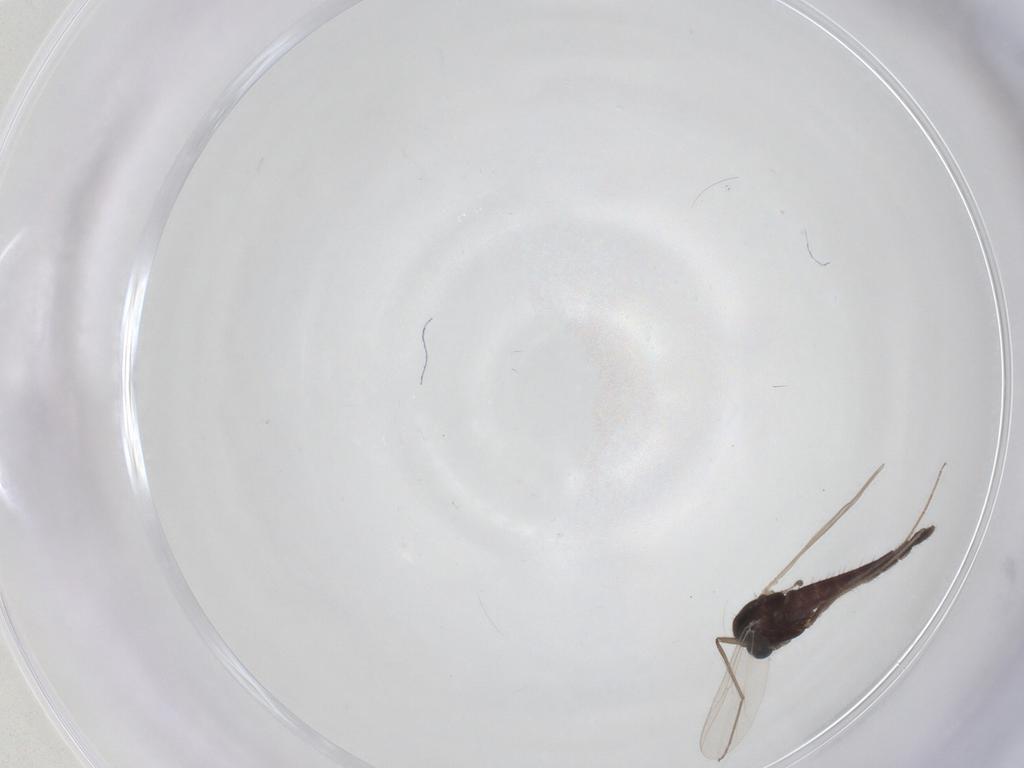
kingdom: Animalia
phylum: Arthropoda
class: Insecta
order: Diptera
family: Chironomidae
